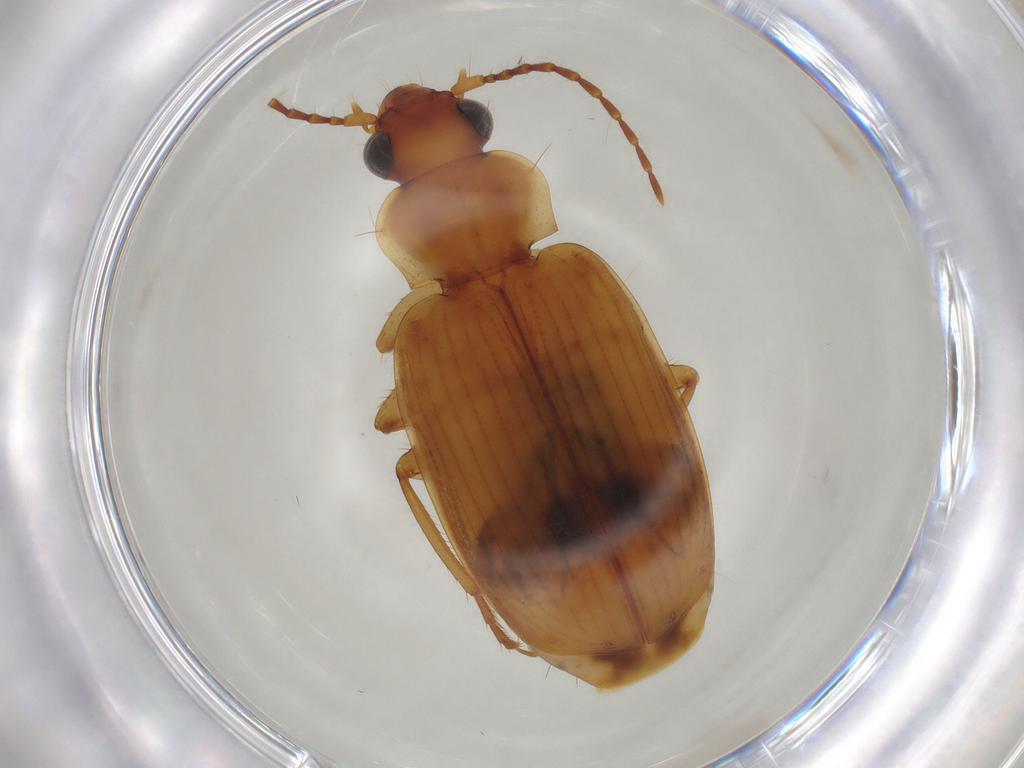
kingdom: Animalia
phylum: Arthropoda
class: Insecta
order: Coleoptera
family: Carabidae
